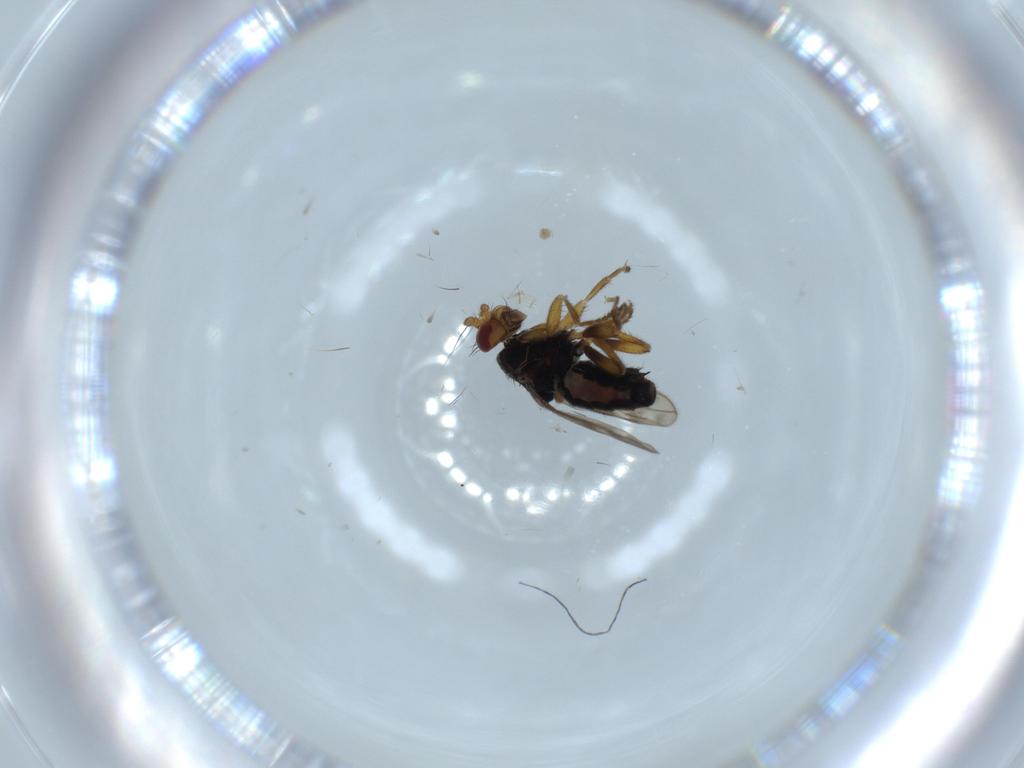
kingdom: Animalia
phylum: Arthropoda
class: Insecta
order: Diptera
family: Sphaeroceridae
